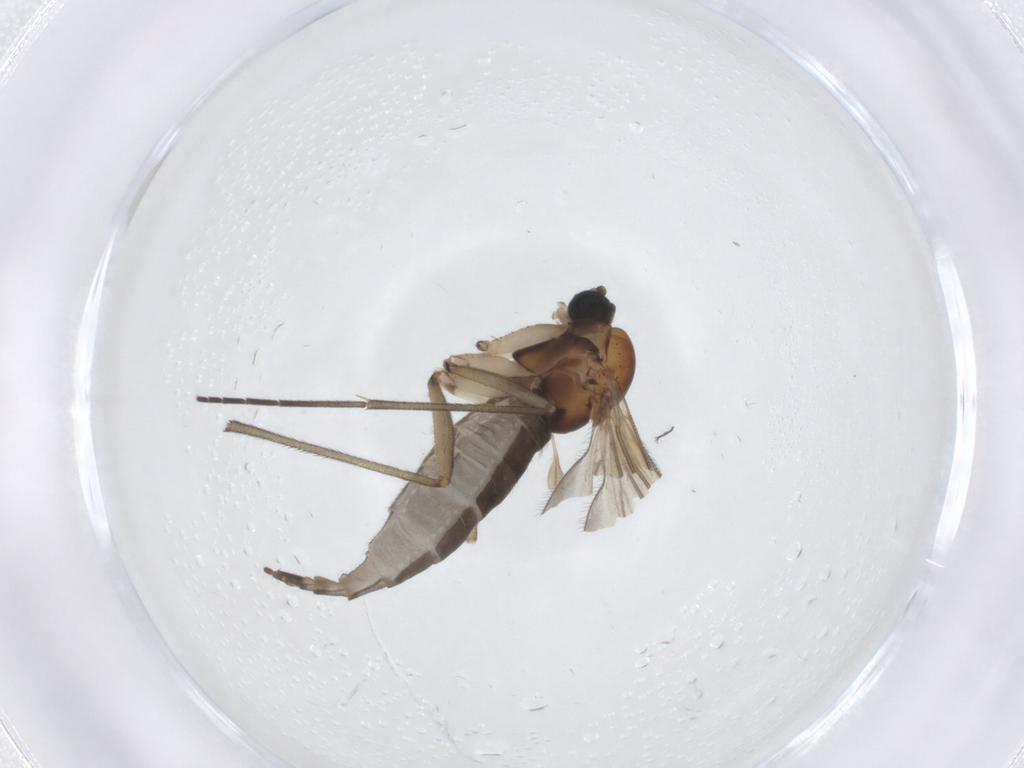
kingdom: Animalia
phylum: Arthropoda
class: Insecta
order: Diptera
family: Sciaridae
